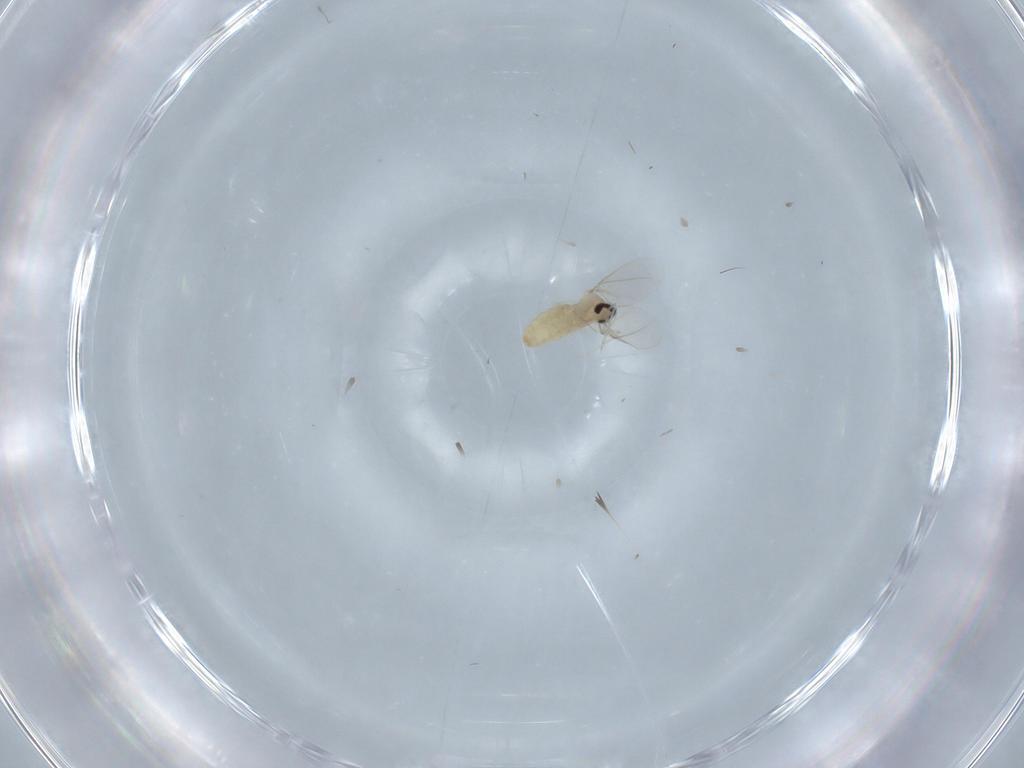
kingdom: Animalia
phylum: Arthropoda
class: Insecta
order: Diptera
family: Cecidomyiidae
